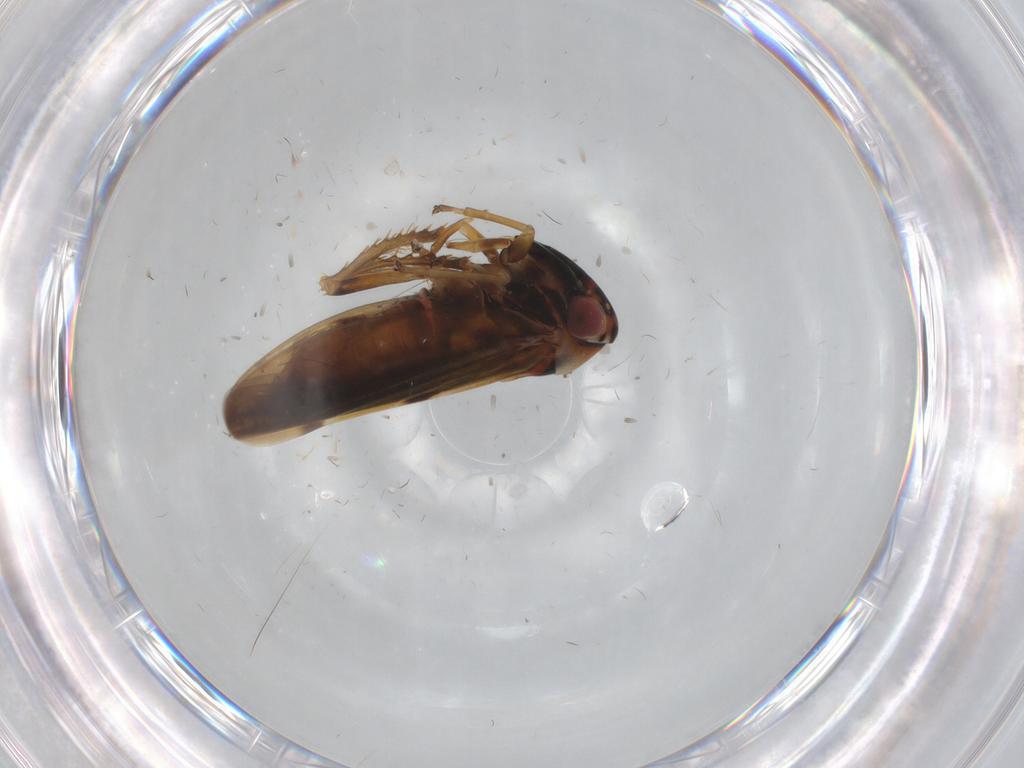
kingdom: Animalia
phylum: Arthropoda
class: Insecta
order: Hemiptera
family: Cicadellidae
